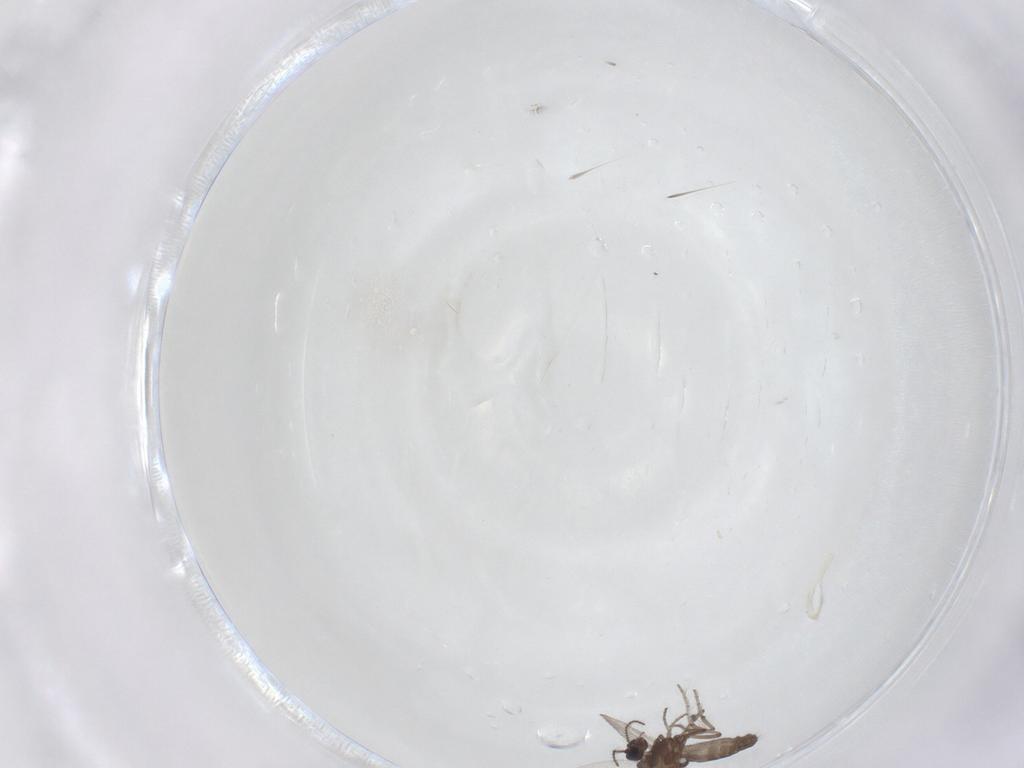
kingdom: Animalia
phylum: Arthropoda
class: Insecta
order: Diptera
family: Ceratopogonidae
